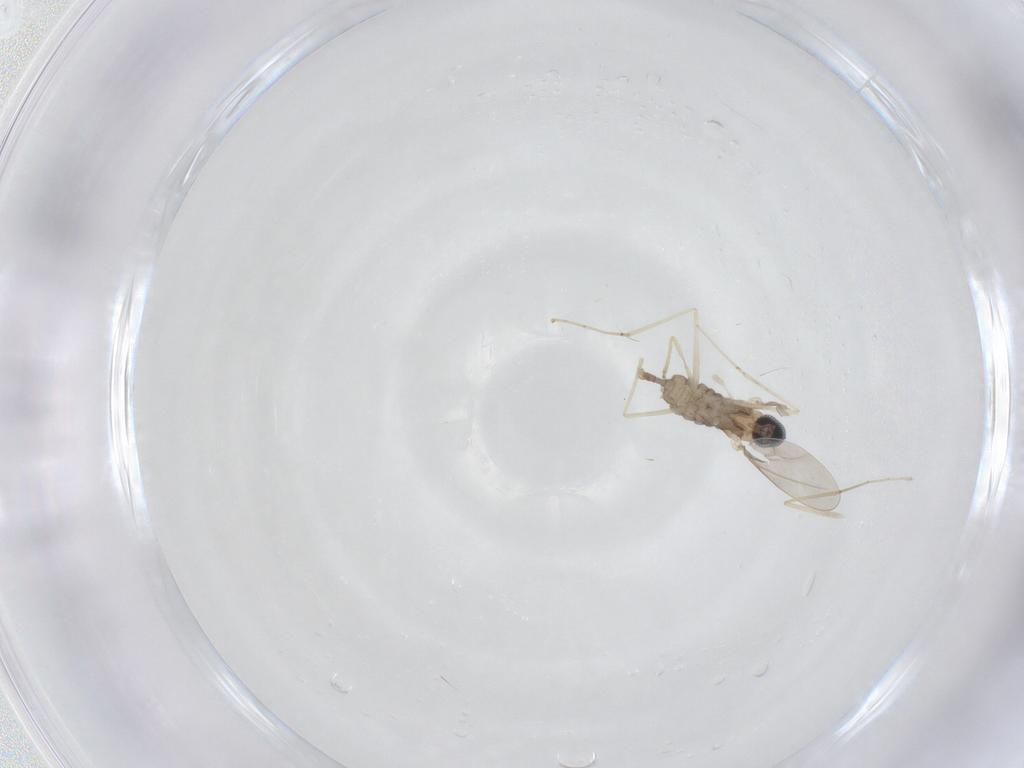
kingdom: Animalia
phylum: Arthropoda
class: Insecta
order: Diptera
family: Cecidomyiidae
